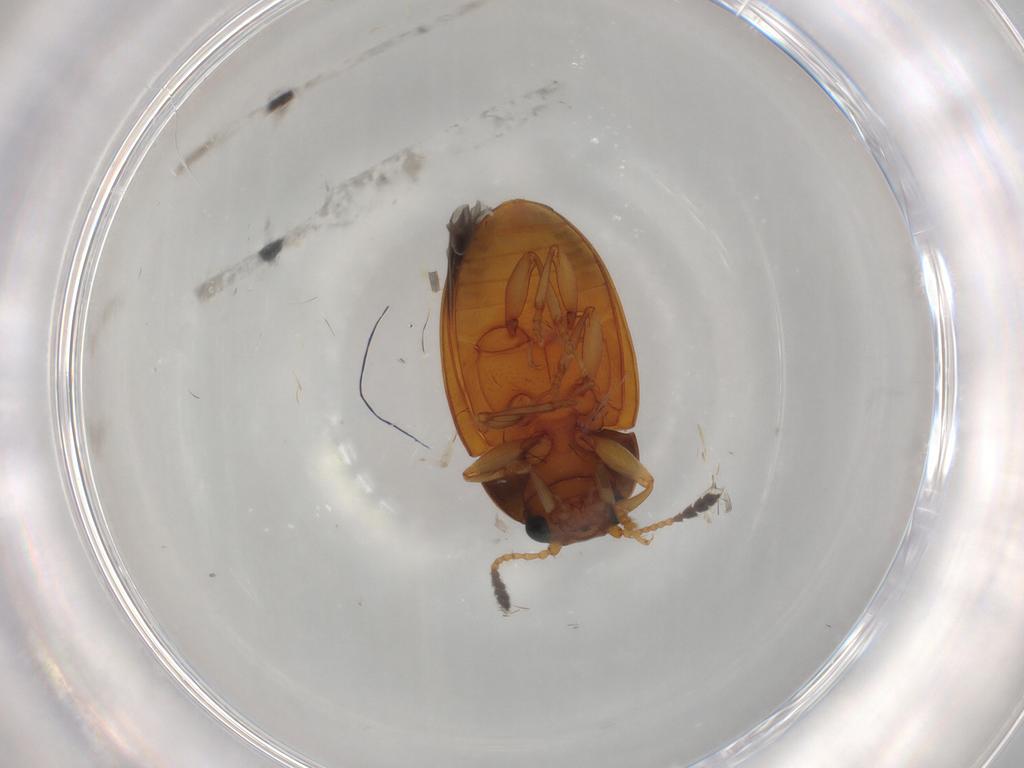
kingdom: Animalia
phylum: Arthropoda
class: Insecta
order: Coleoptera
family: Erotylidae
